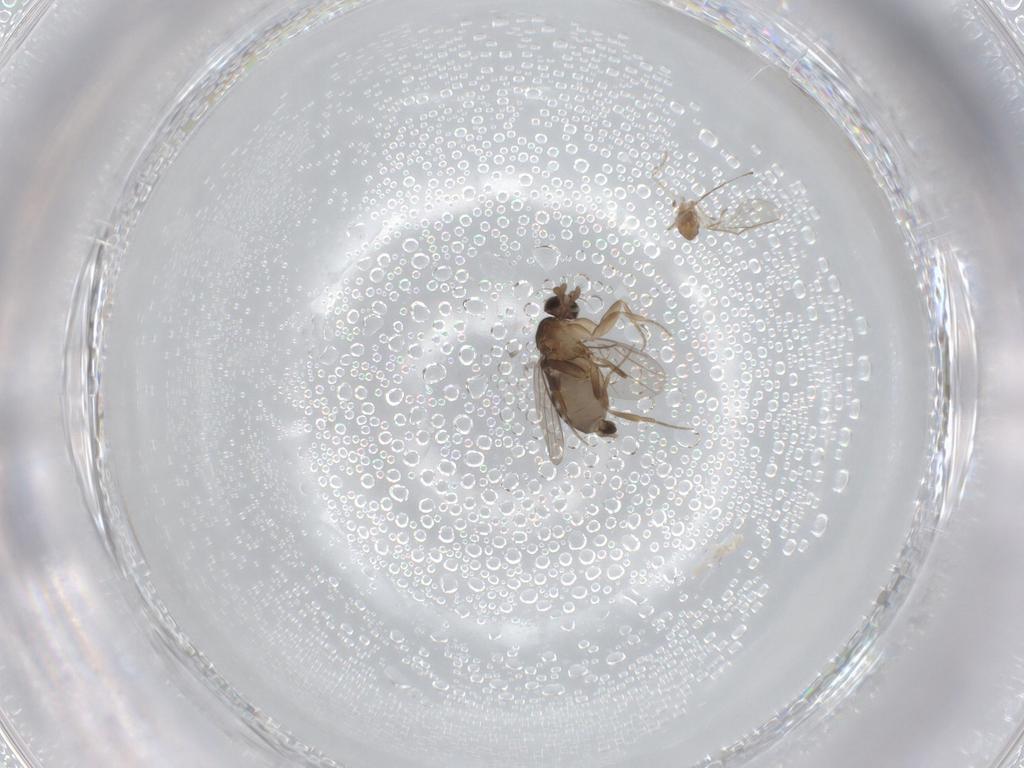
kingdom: Animalia
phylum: Arthropoda
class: Insecta
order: Diptera
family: Cecidomyiidae
